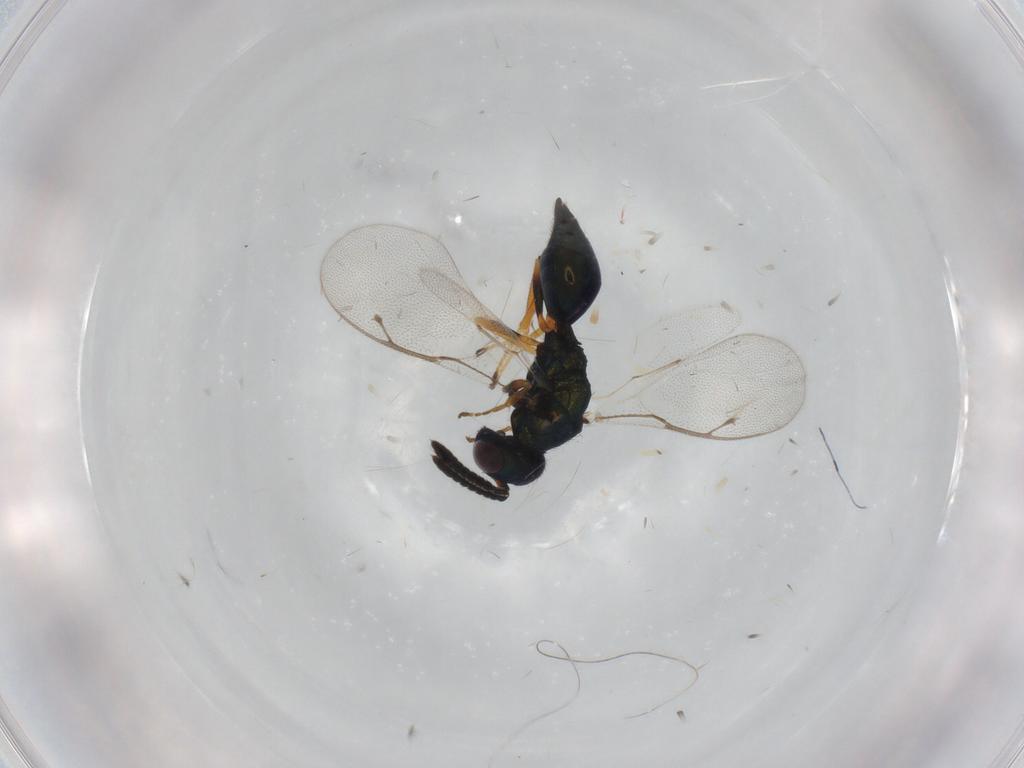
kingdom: Animalia
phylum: Arthropoda
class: Insecta
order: Hymenoptera
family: Pteromalidae
